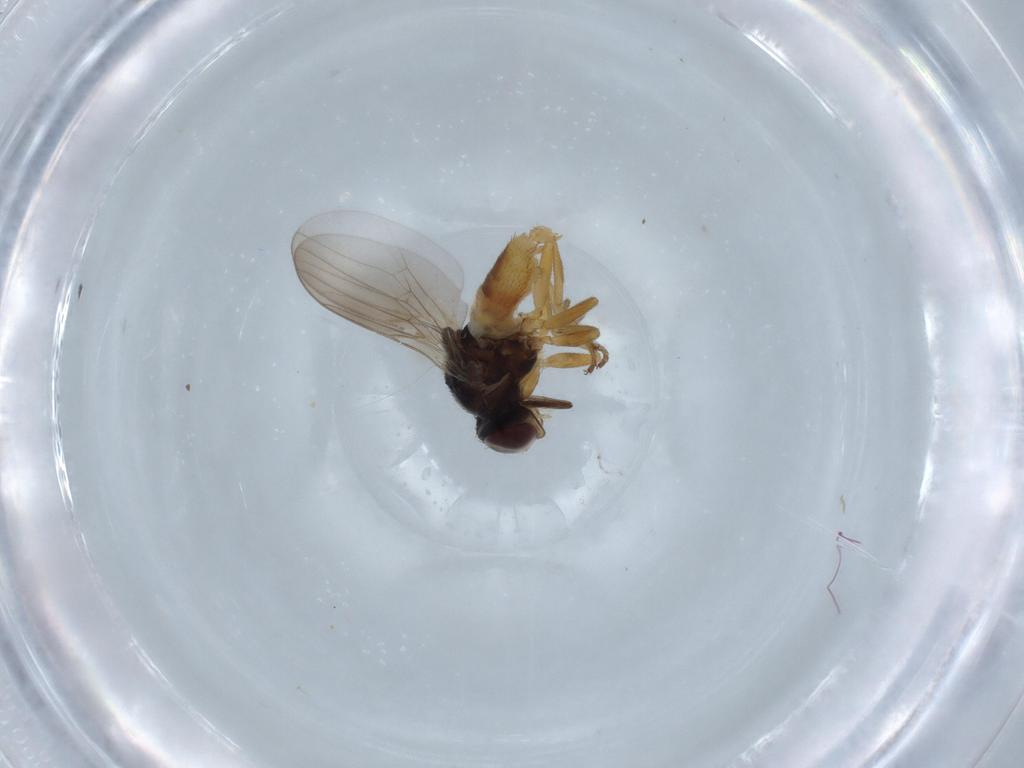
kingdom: Animalia
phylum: Arthropoda
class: Insecta
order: Diptera
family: Chloropidae
